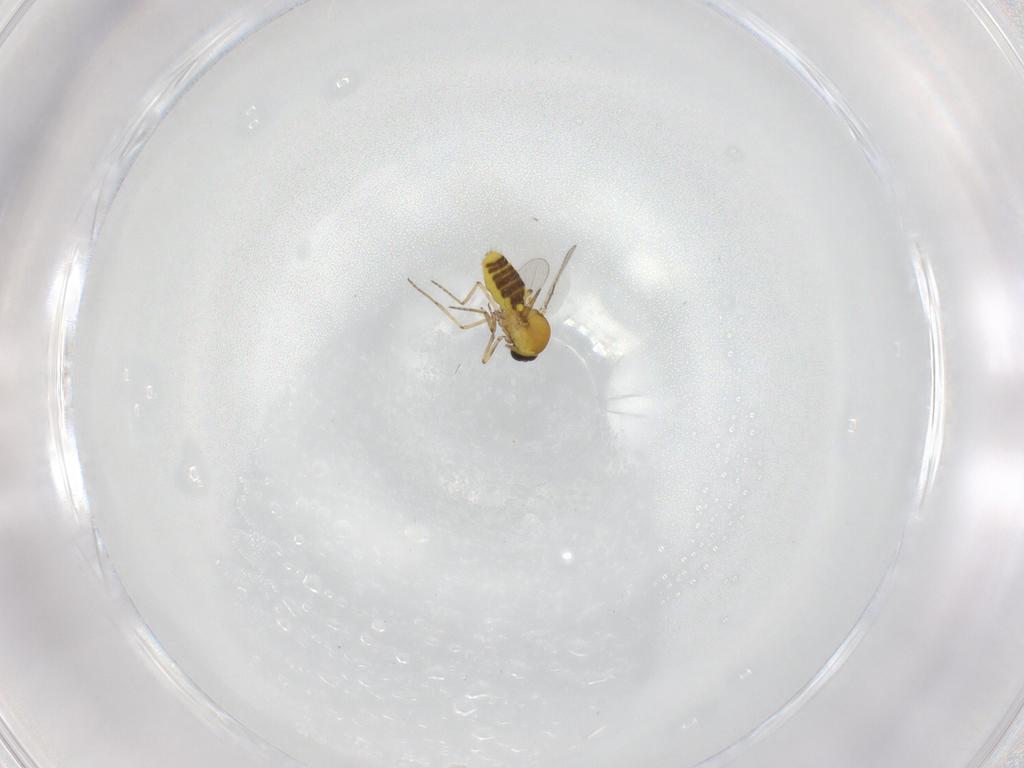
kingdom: Animalia
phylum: Arthropoda
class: Insecta
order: Diptera
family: Ceratopogonidae
